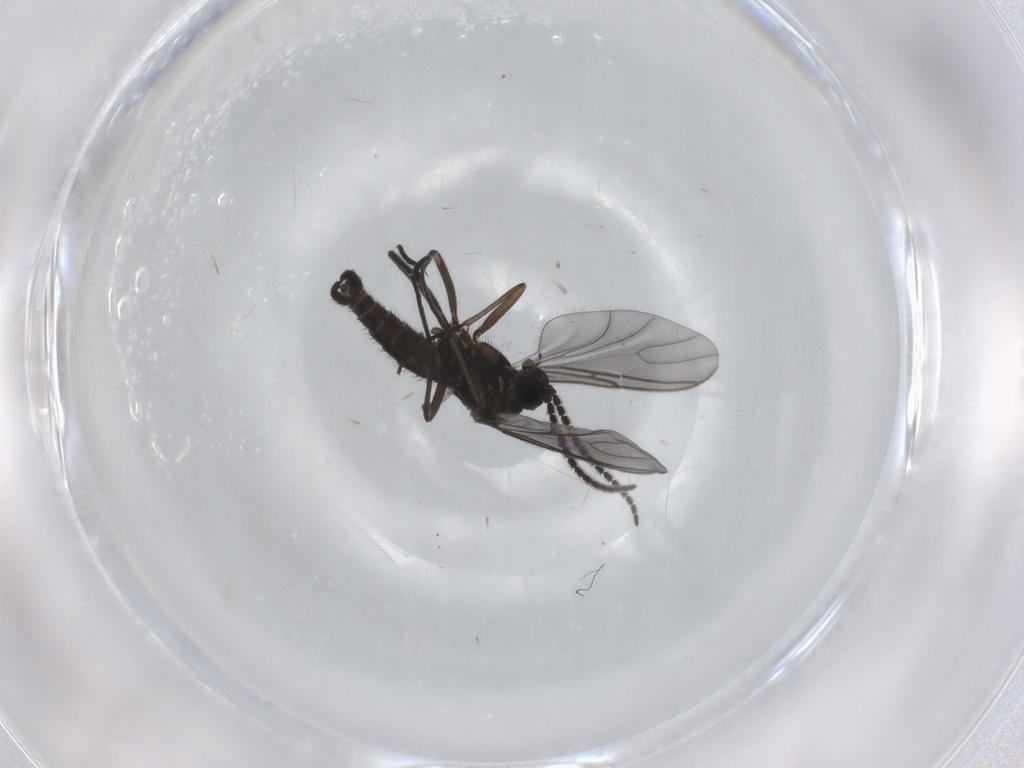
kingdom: Animalia
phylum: Arthropoda
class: Insecta
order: Diptera
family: Sciaridae
